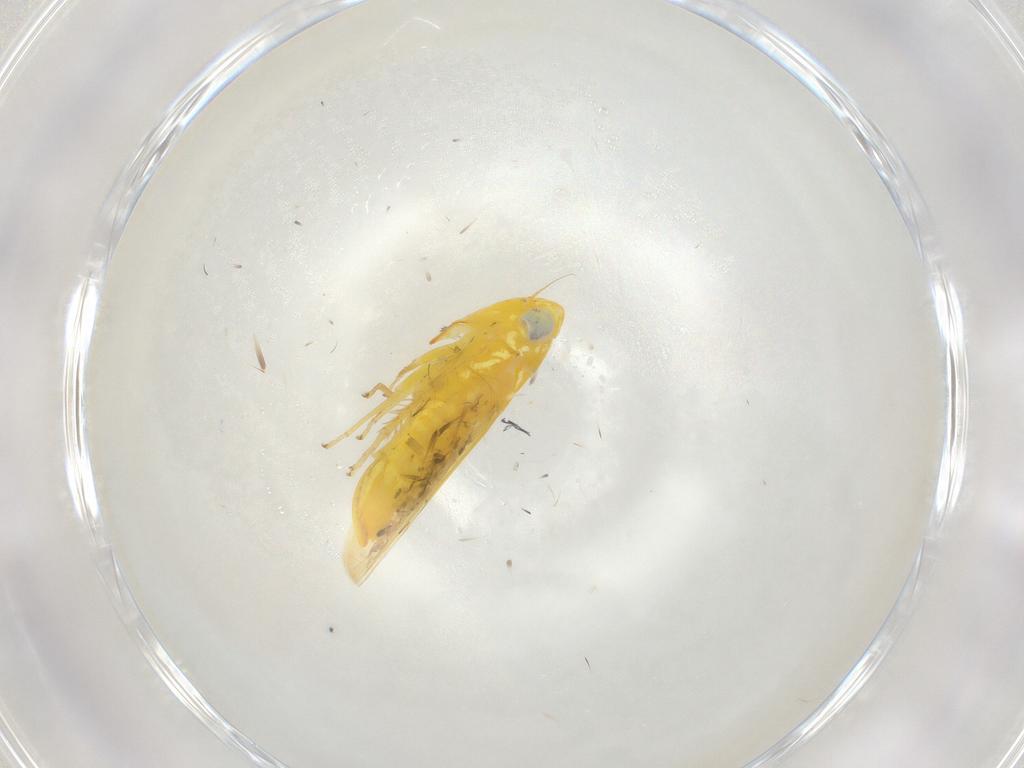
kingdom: Animalia
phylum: Arthropoda
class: Insecta
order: Hemiptera
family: Cicadellidae
